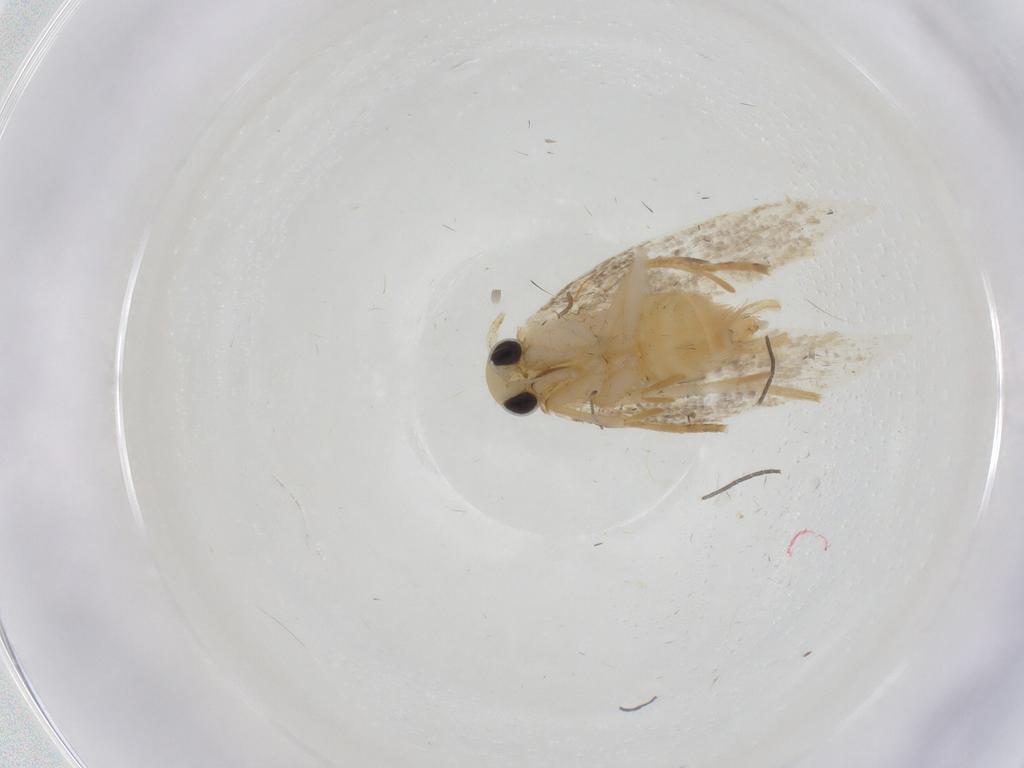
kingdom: Animalia
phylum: Arthropoda
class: Insecta
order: Lepidoptera
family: Erebidae
